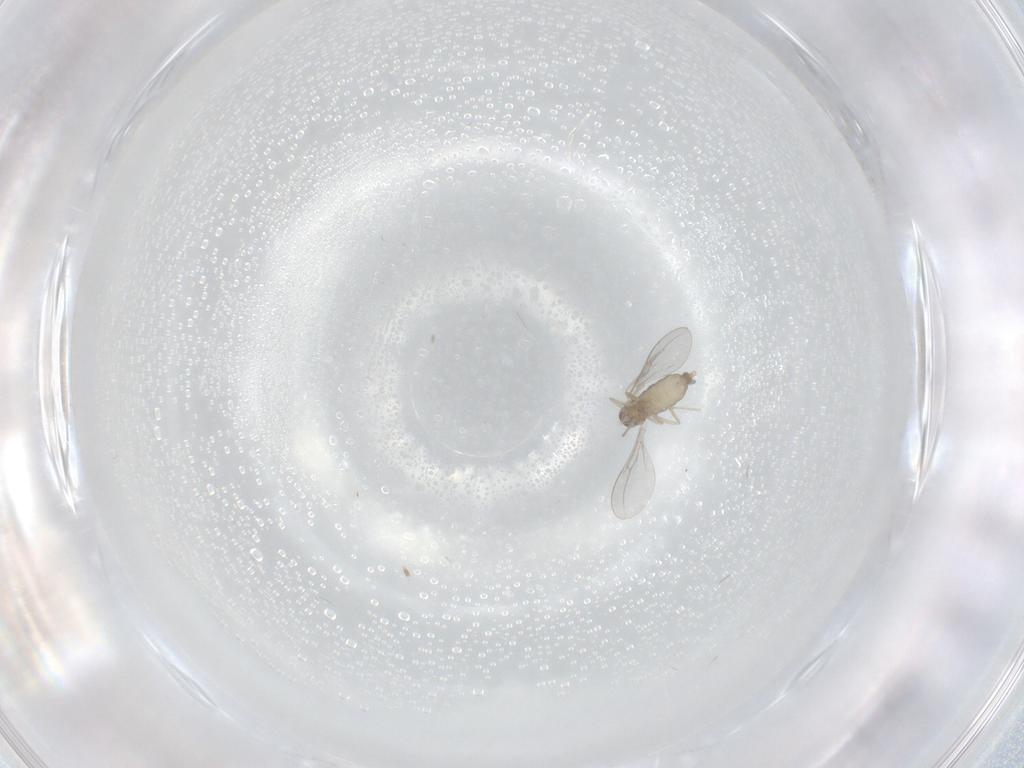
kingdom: Animalia
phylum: Arthropoda
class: Insecta
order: Diptera
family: Cecidomyiidae
